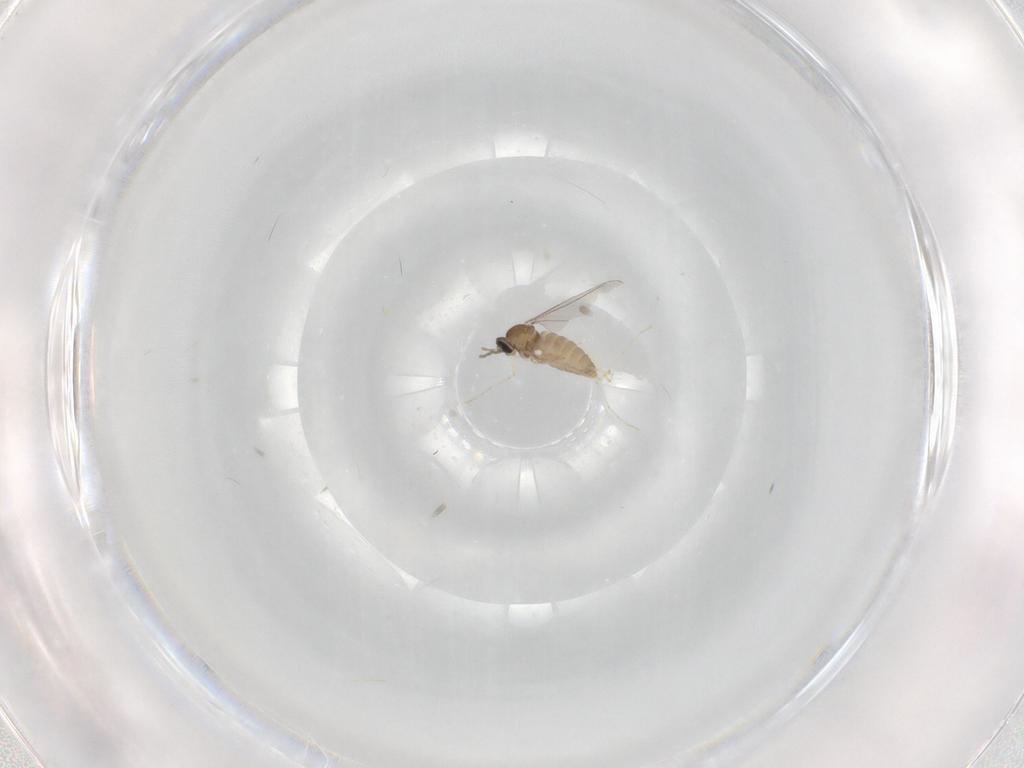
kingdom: Animalia
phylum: Arthropoda
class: Insecta
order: Diptera
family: Cecidomyiidae
